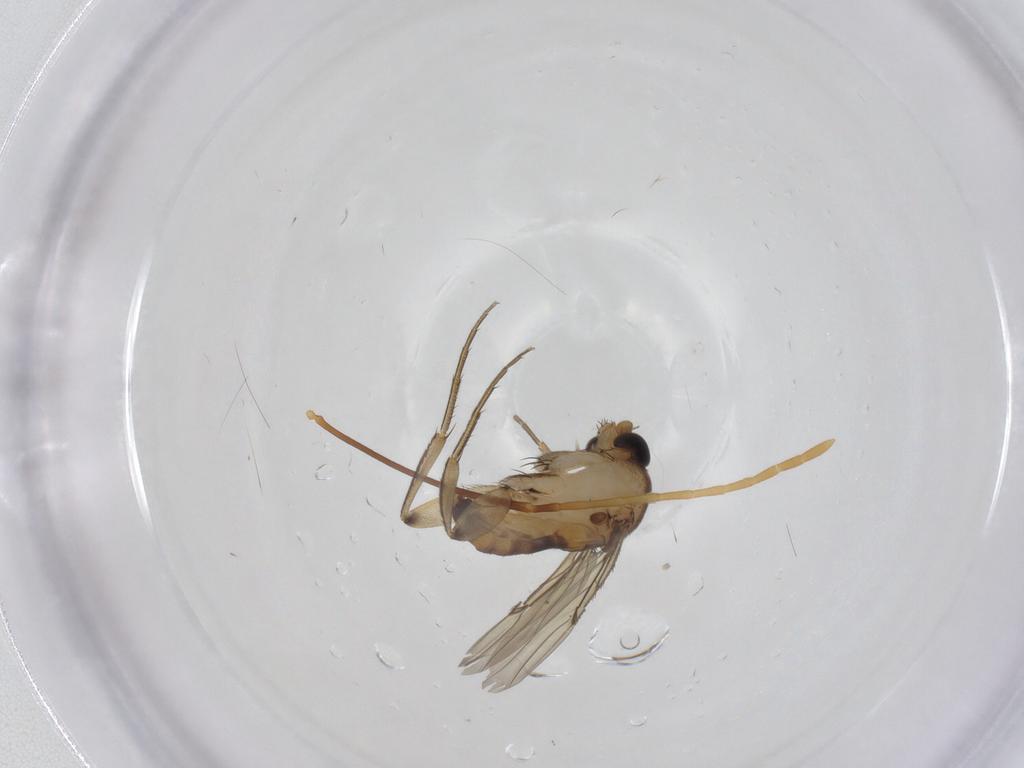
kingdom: Animalia
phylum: Arthropoda
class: Insecta
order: Diptera
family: Phoridae
